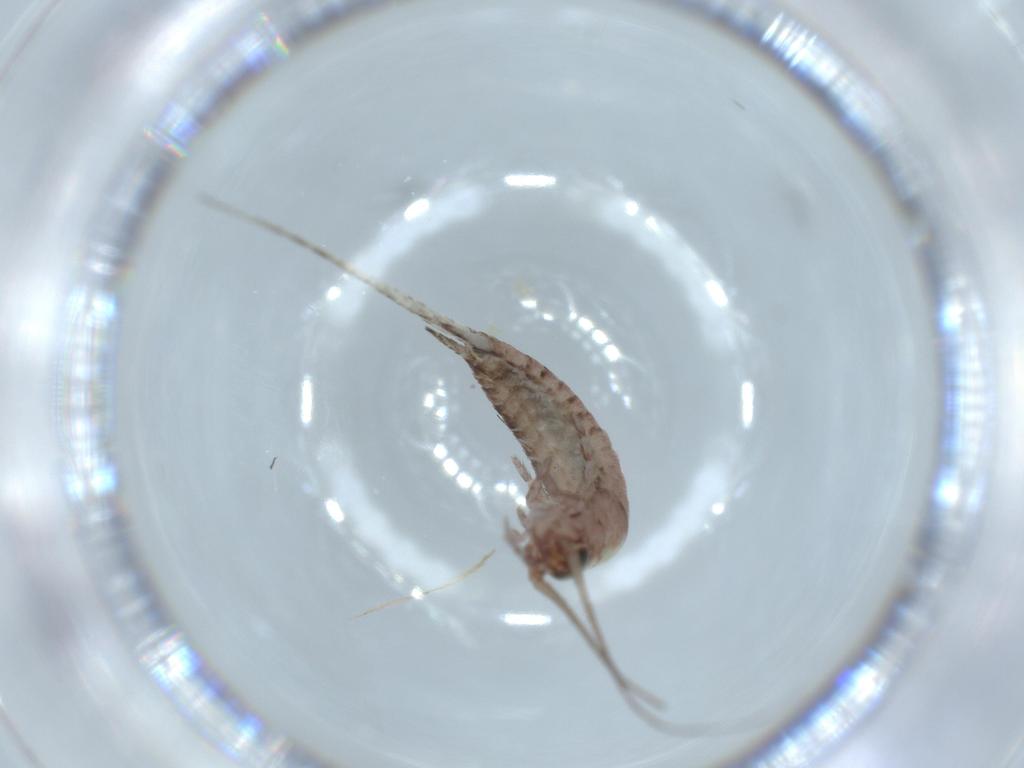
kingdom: Animalia
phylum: Arthropoda
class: Insecta
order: Archaeognatha
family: Machilidae
